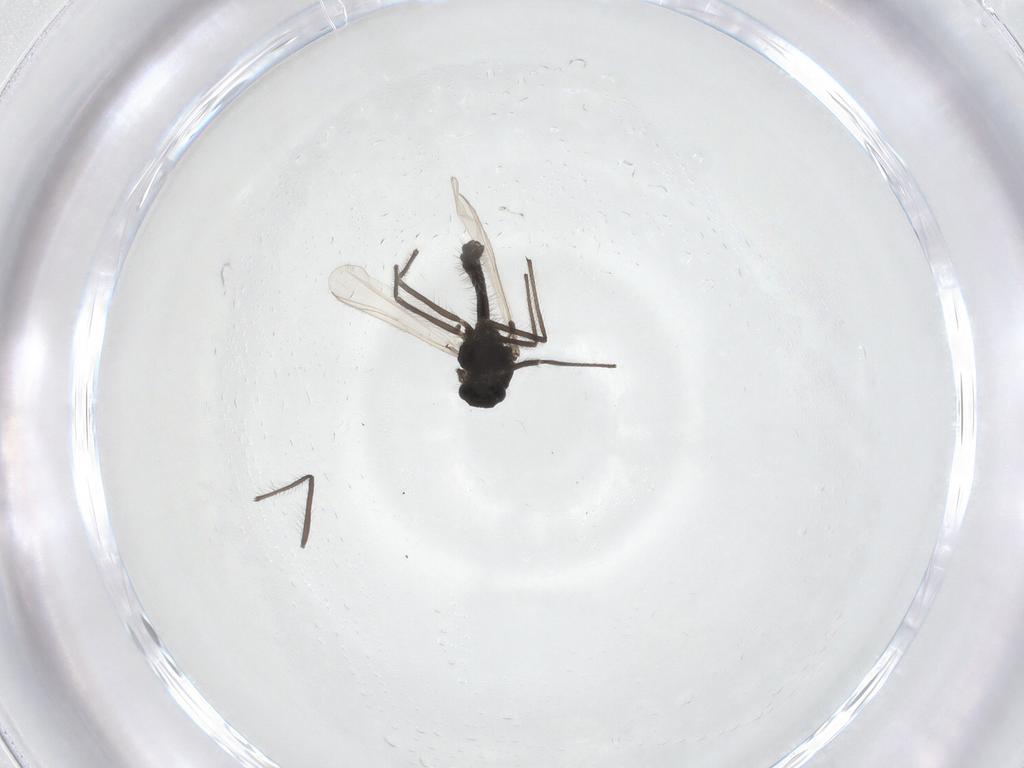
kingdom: Animalia
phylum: Arthropoda
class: Insecta
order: Diptera
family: Chironomidae
